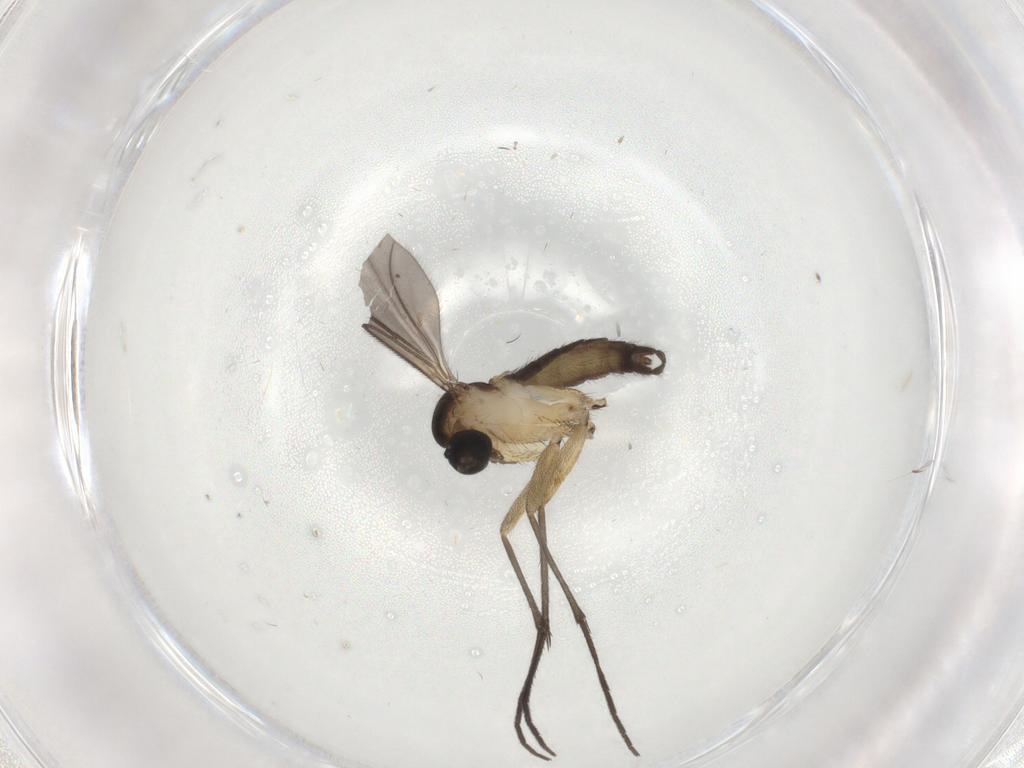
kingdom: Animalia
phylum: Arthropoda
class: Insecta
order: Diptera
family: Sciaridae
